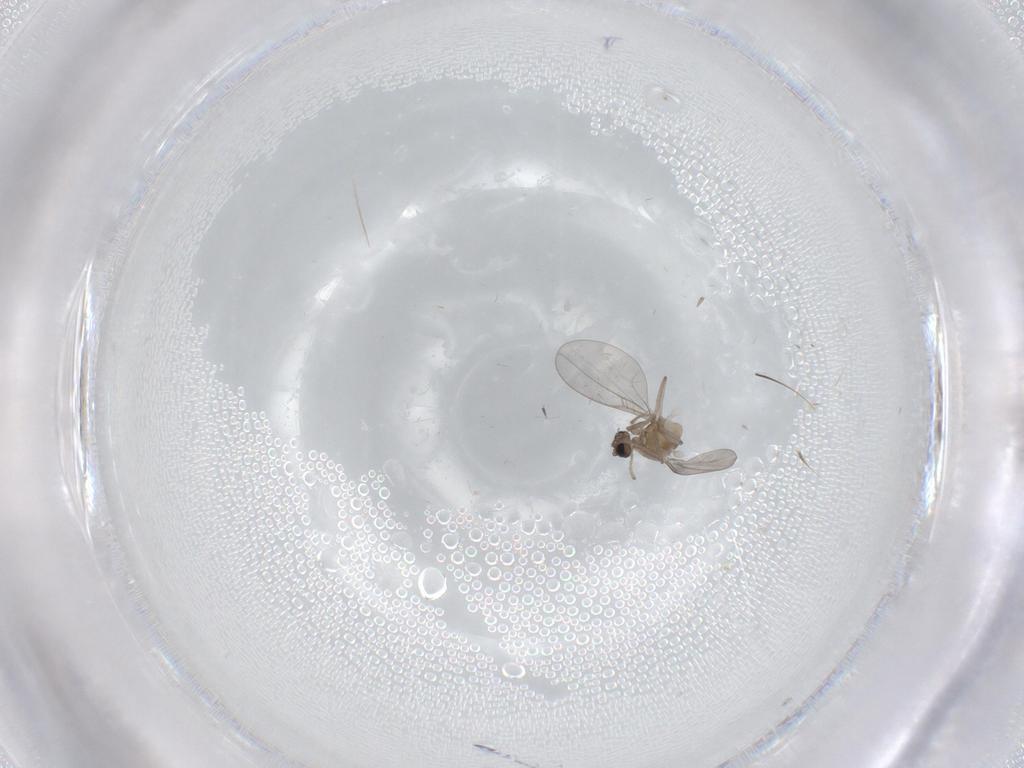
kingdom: Animalia
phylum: Arthropoda
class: Insecta
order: Diptera
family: Cecidomyiidae
